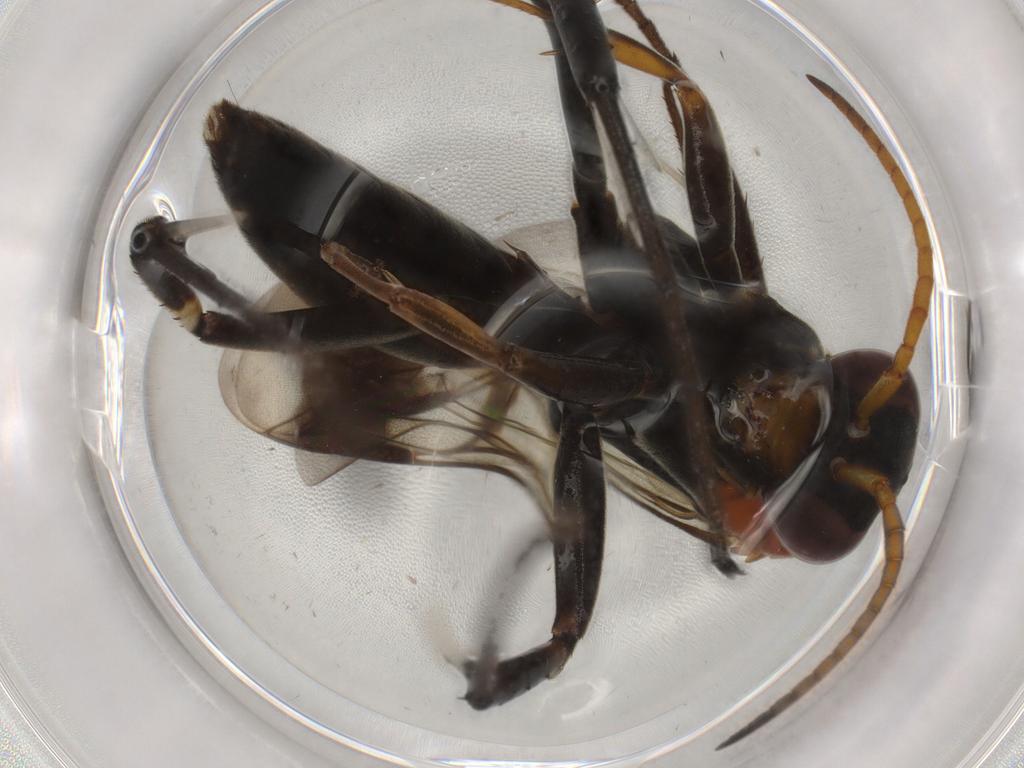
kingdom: Animalia
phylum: Arthropoda
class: Insecta
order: Hymenoptera
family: Pompilidae
